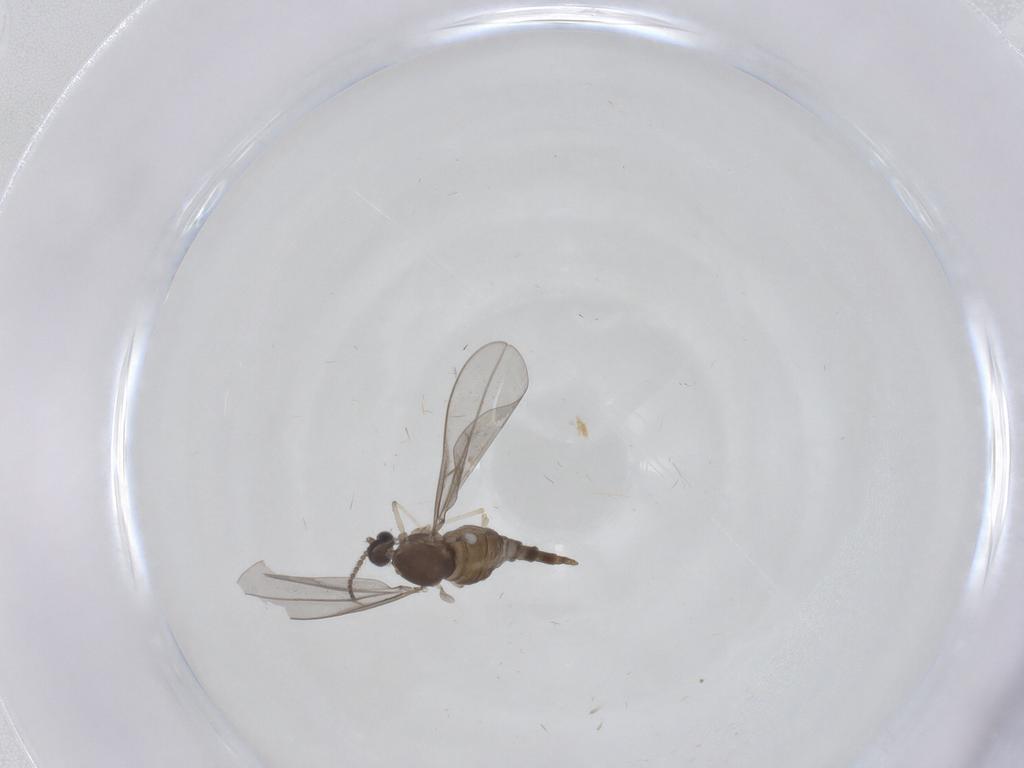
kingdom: Animalia
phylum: Arthropoda
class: Insecta
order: Diptera
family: Cecidomyiidae
